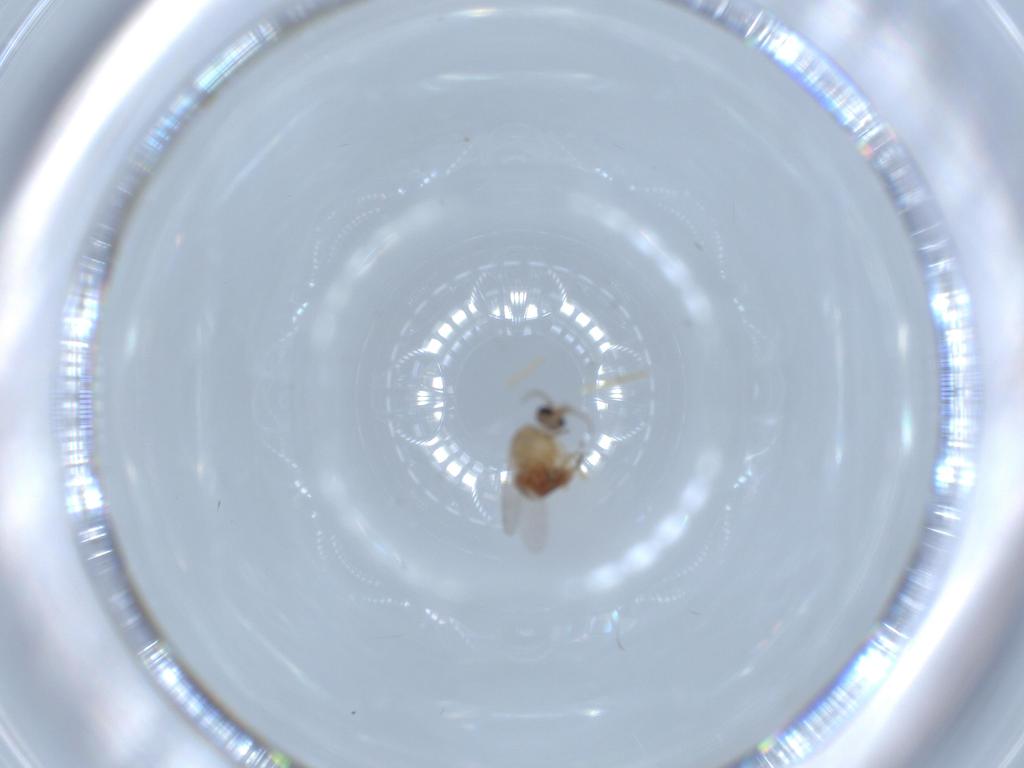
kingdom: Animalia
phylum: Arthropoda
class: Insecta
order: Diptera
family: Ceratopogonidae
